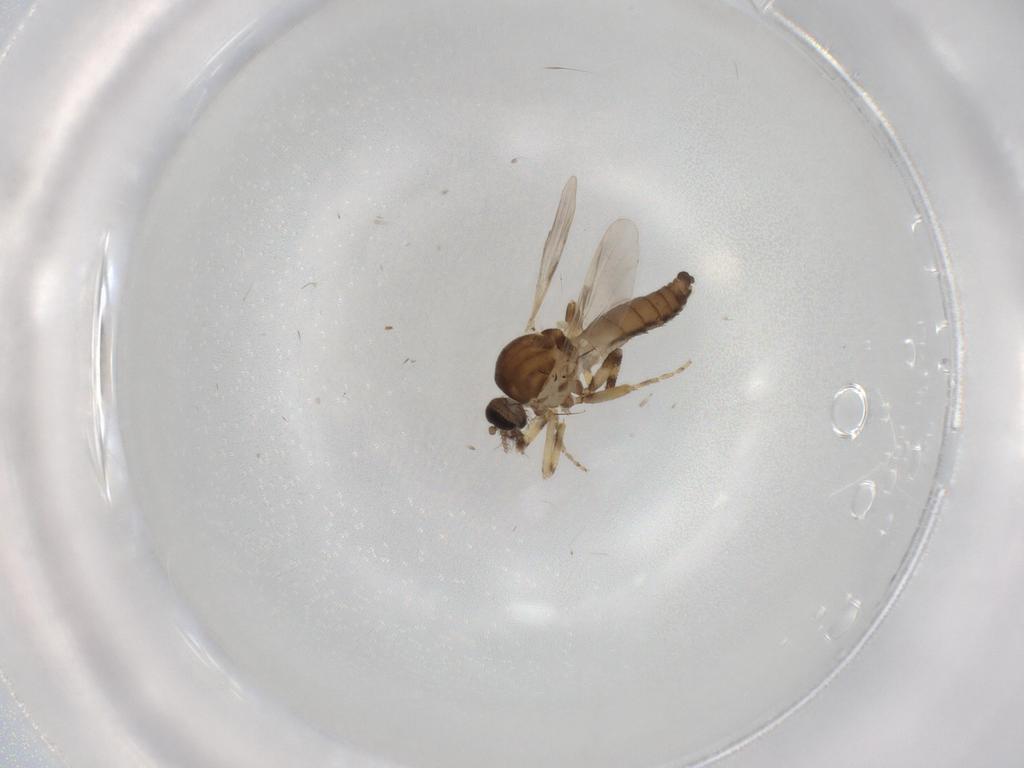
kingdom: Animalia
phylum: Arthropoda
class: Insecta
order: Diptera
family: Ceratopogonidae
